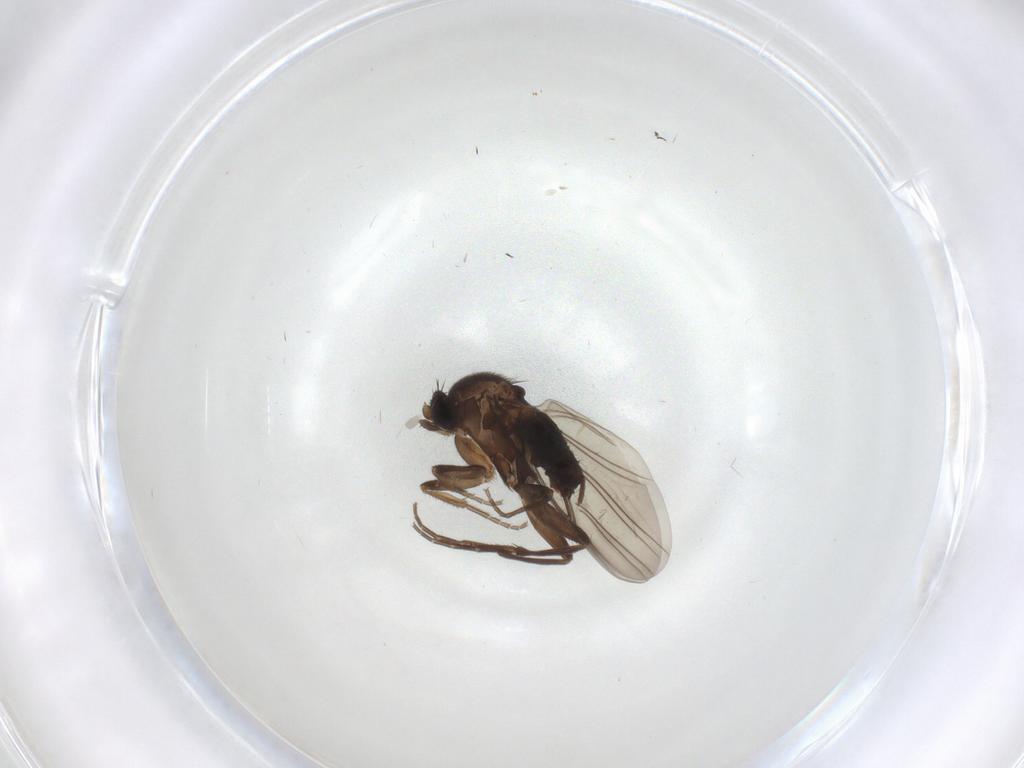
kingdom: Animalia
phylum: Arthropoda
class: Insecta
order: Diptera
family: Cecidomyiidae
